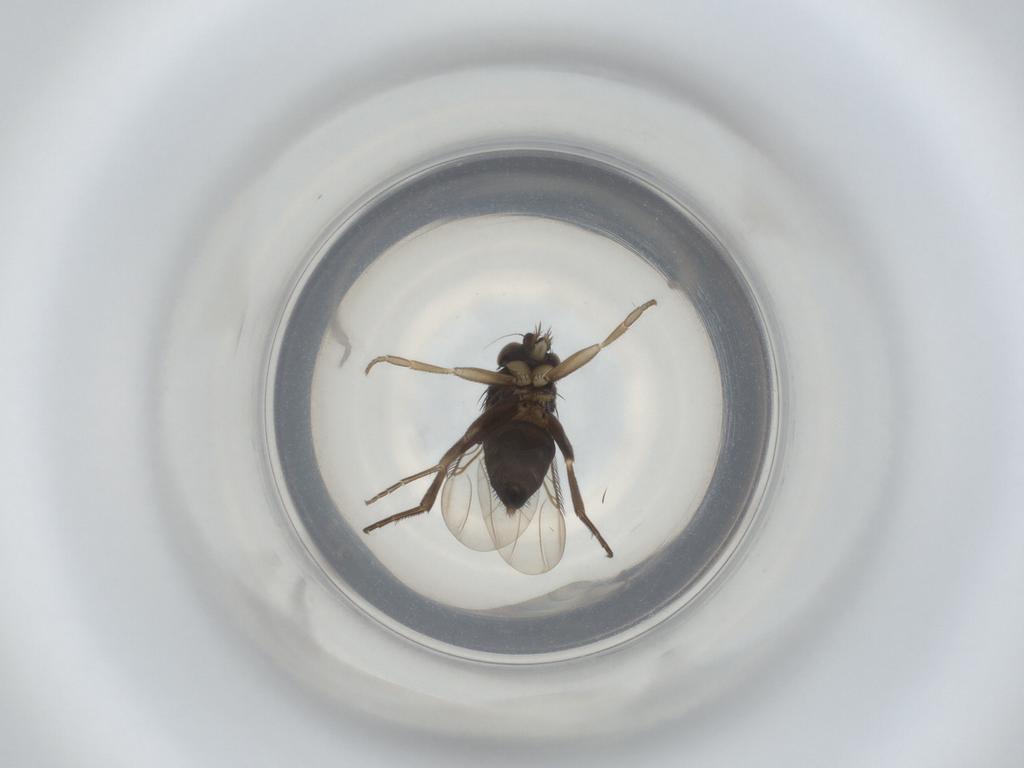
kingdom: Animalia
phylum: Arthropoda
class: Insecta
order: Diptera
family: Phoridae
